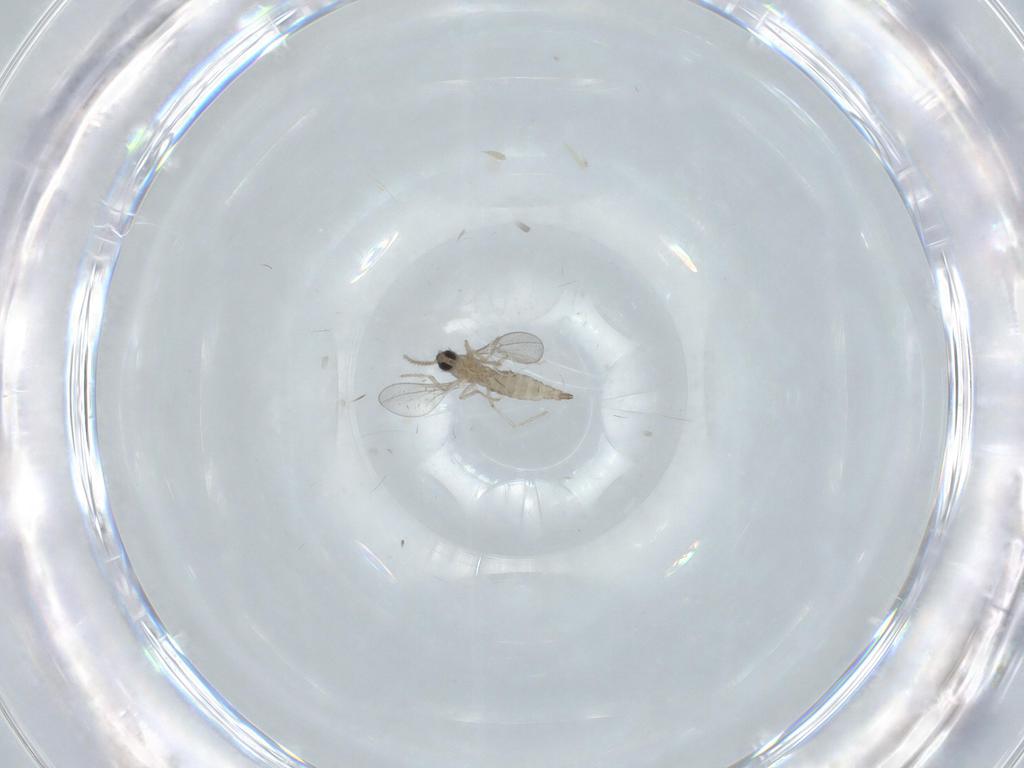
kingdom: Animalia
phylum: Arthropoda
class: Insecta
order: Diptera
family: Cecidomyiidae
